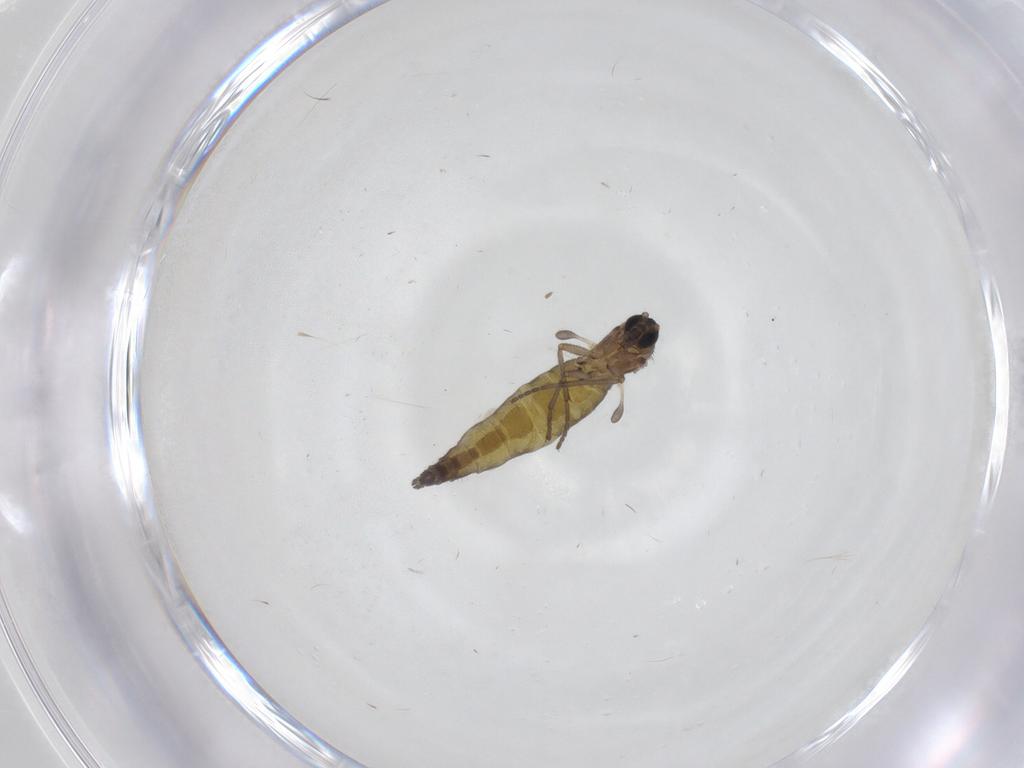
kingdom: Animalia
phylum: Arthropoda
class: Insecta
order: Diptera
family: Sciaridae
